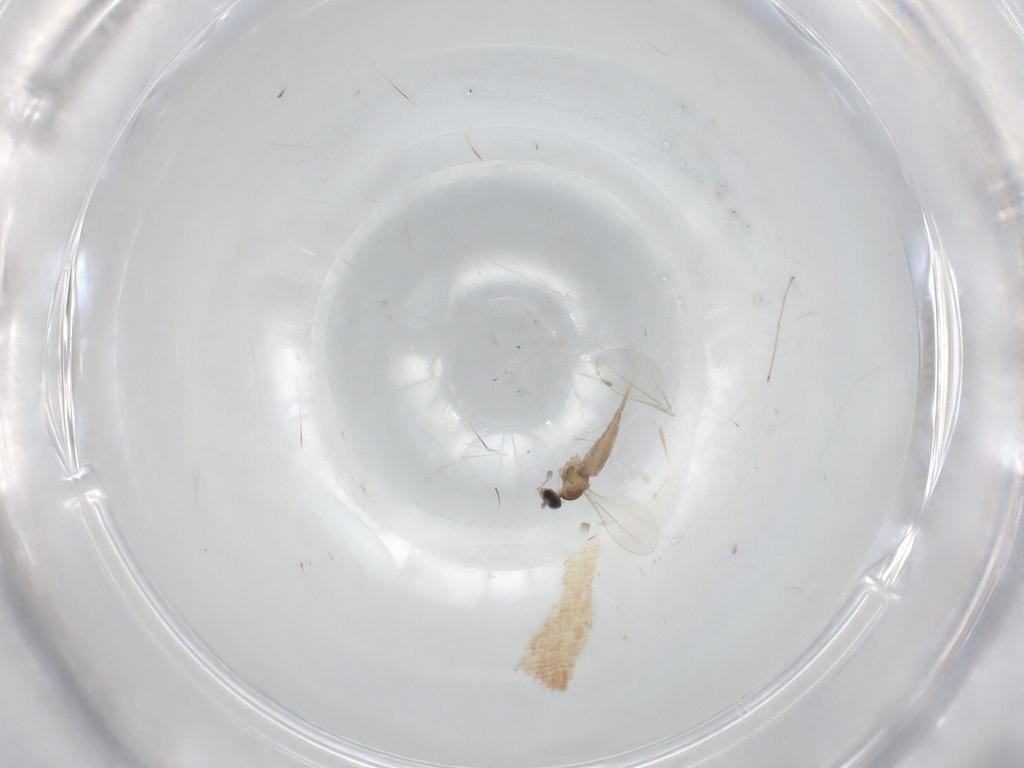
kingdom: Animalia
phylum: Arthropoda
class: Insecta
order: Diptera
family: Cecidomyiidae
